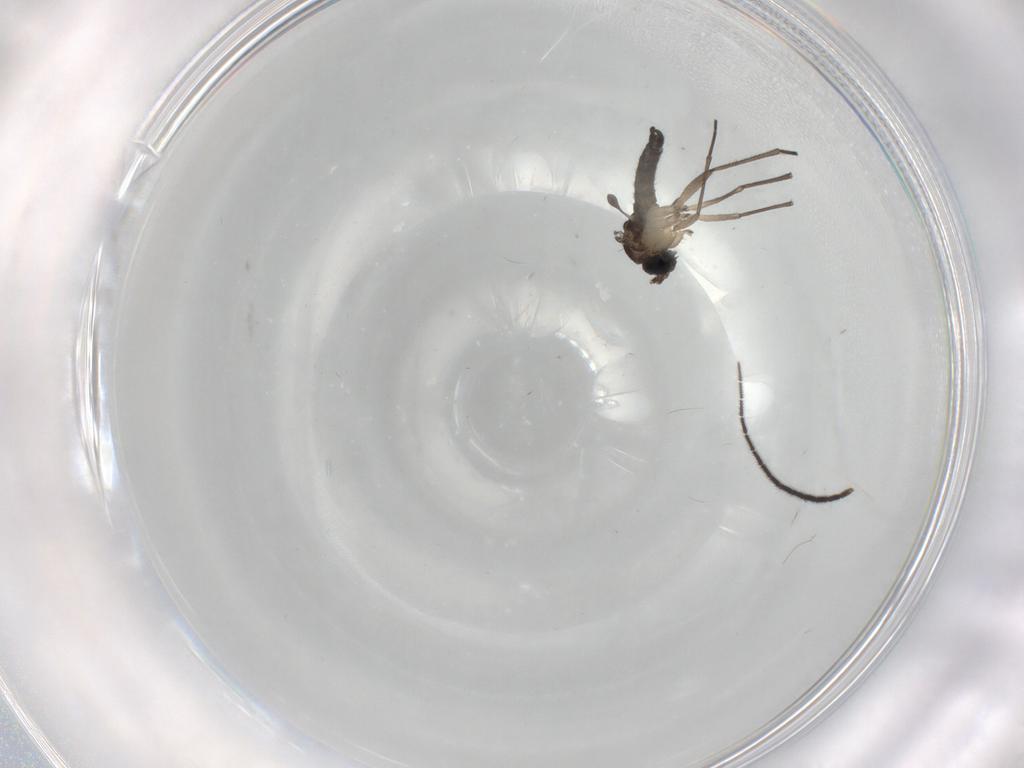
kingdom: Animalia
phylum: Arthropoda
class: Insecta
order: Diptera
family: Sciaridae
